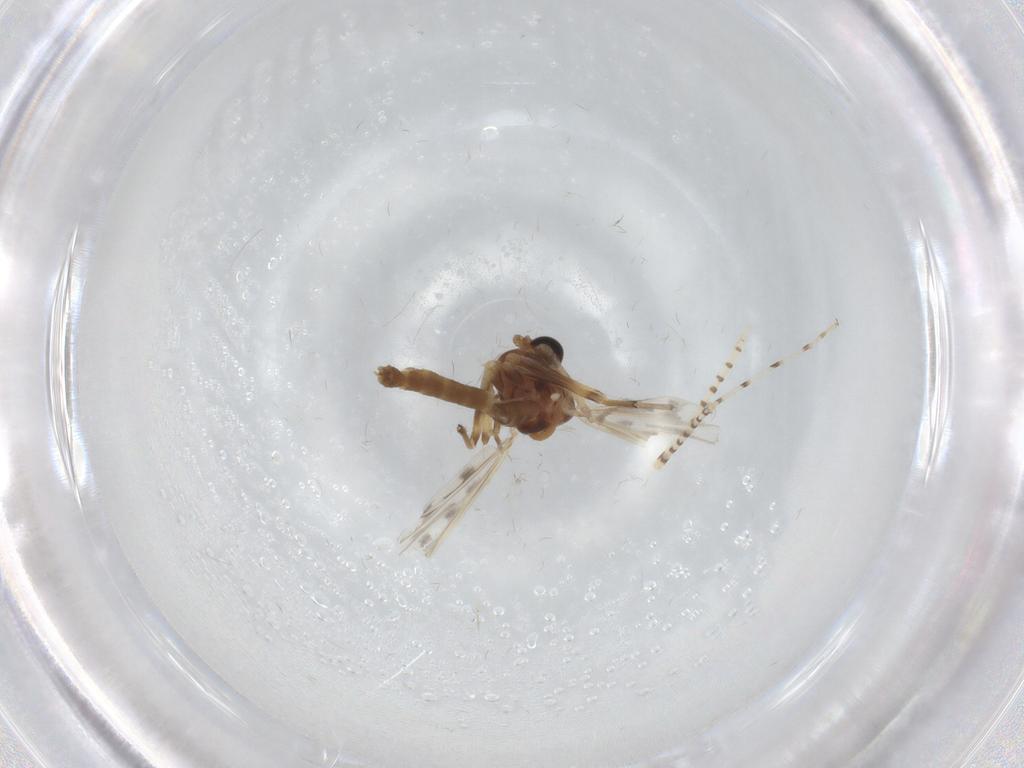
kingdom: Animalia
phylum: Arthropoda
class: Insecta
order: Diptera
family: Chironomidae
